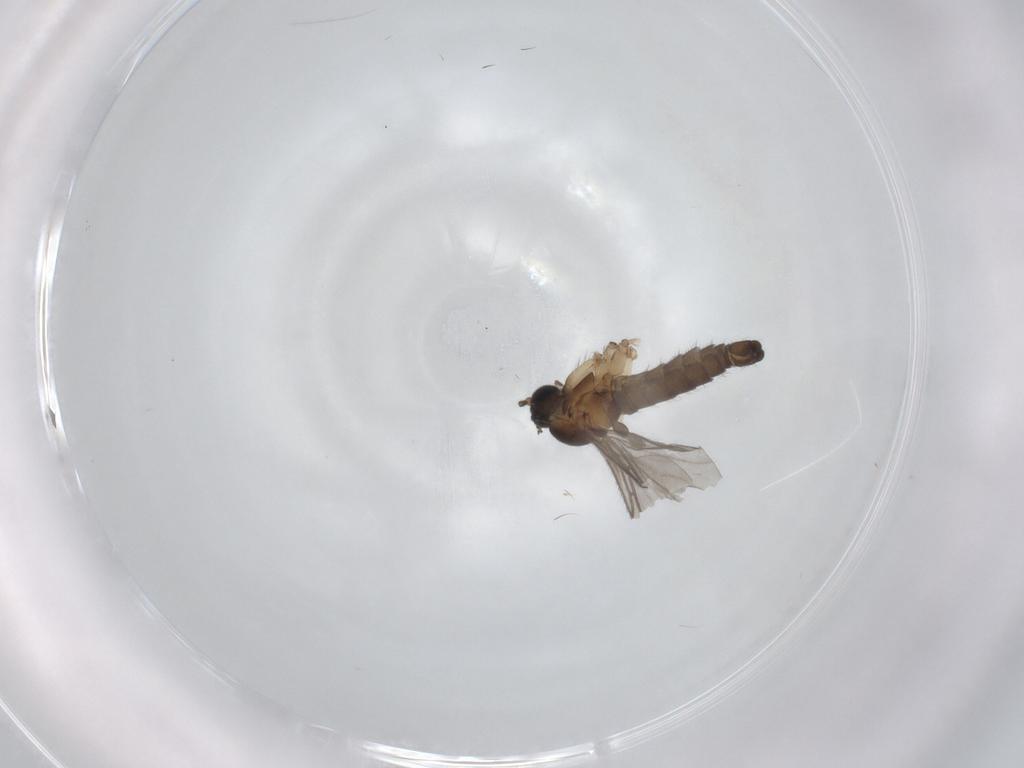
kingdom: Animalia
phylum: Arthropoda
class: Insecta
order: Diptera
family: Sciaridae
